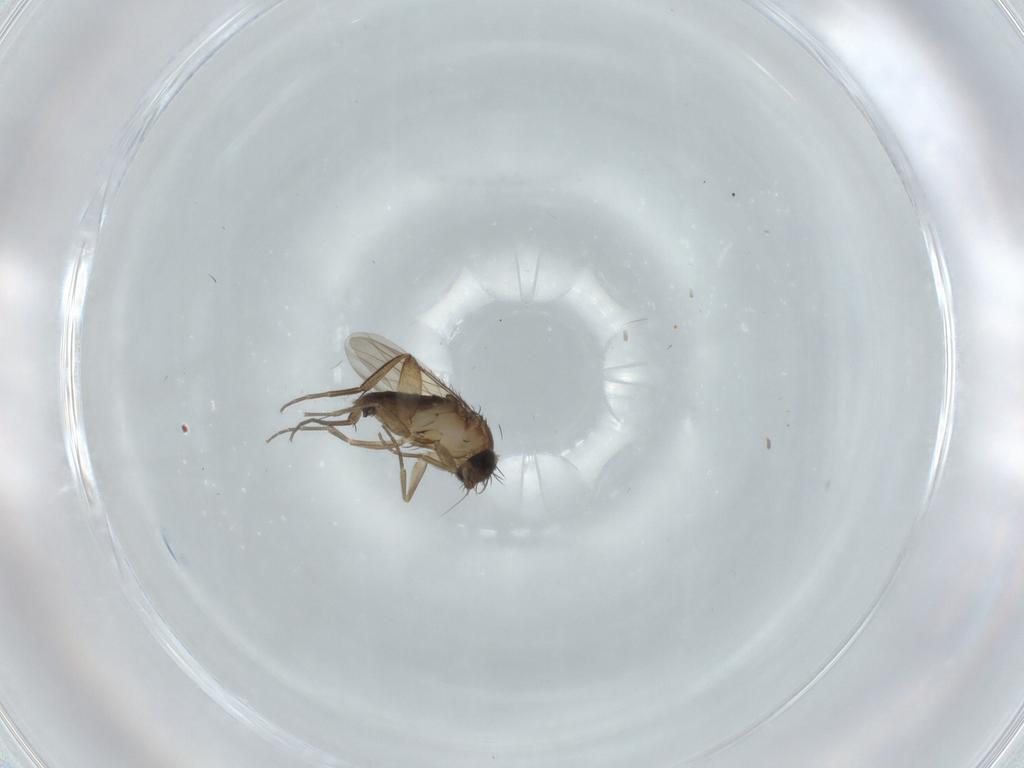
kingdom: Animalia
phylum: Arthropoda
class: Insecta
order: Diptera
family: Phoridae
